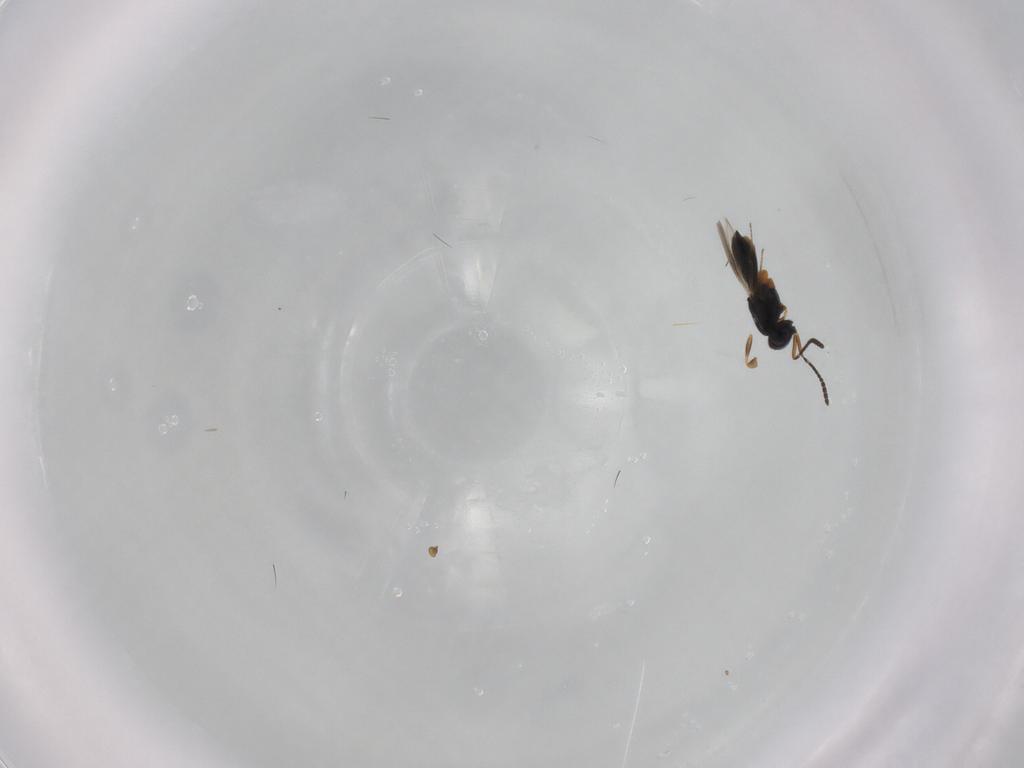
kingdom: Animalia
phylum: Arthropoda
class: Insecta
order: Hymenoptera
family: Scelionidae
